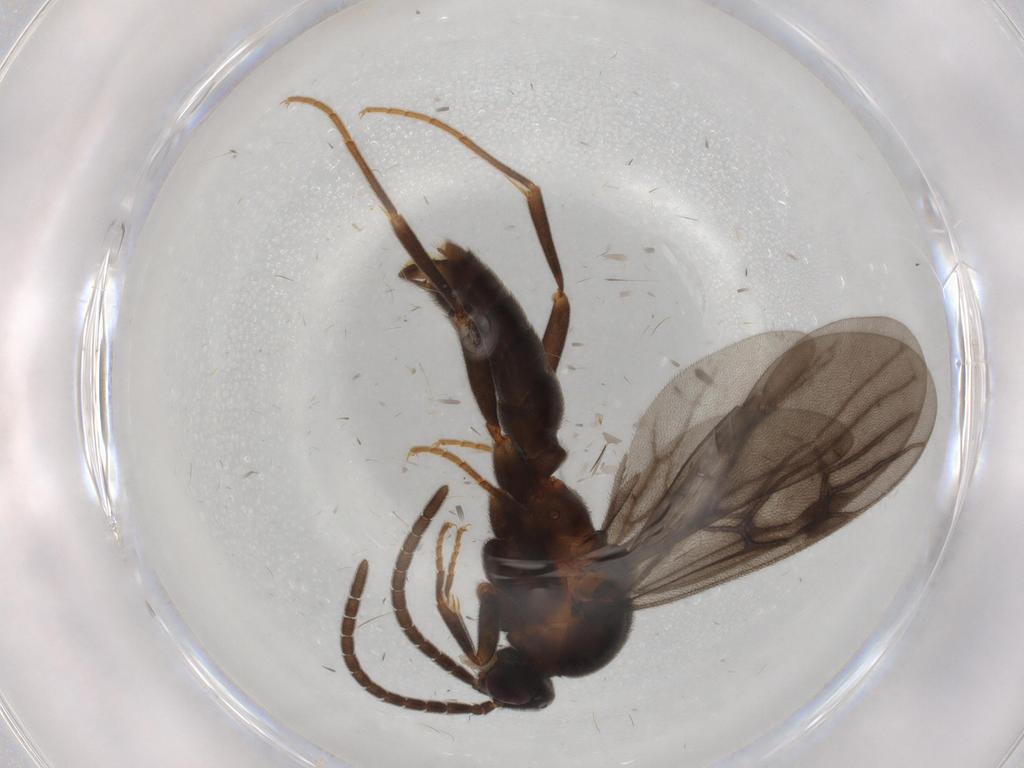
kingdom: Animalia
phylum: Arthropoda
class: Insecta
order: Hymenoptera
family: Formicidae
